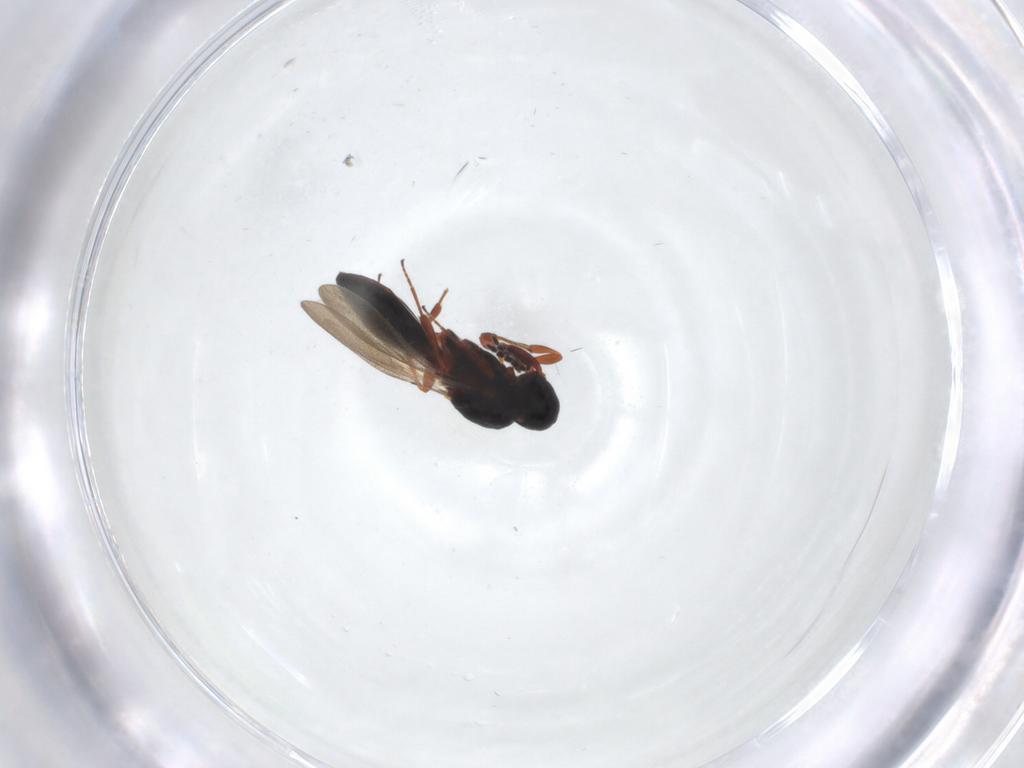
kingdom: Animalia
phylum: Arthropoda
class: Insecta
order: Hymenoptera
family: Platygastridae
